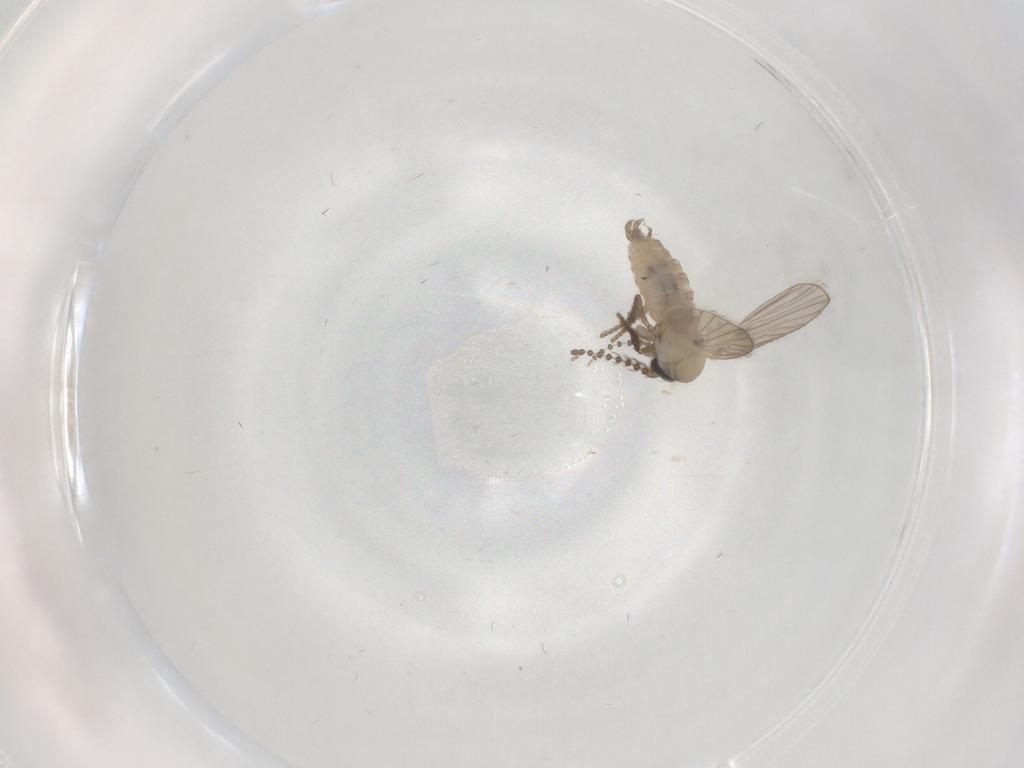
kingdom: Animalia
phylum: Arthropoda
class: Insecta
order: Diptera
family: Psychodidae
